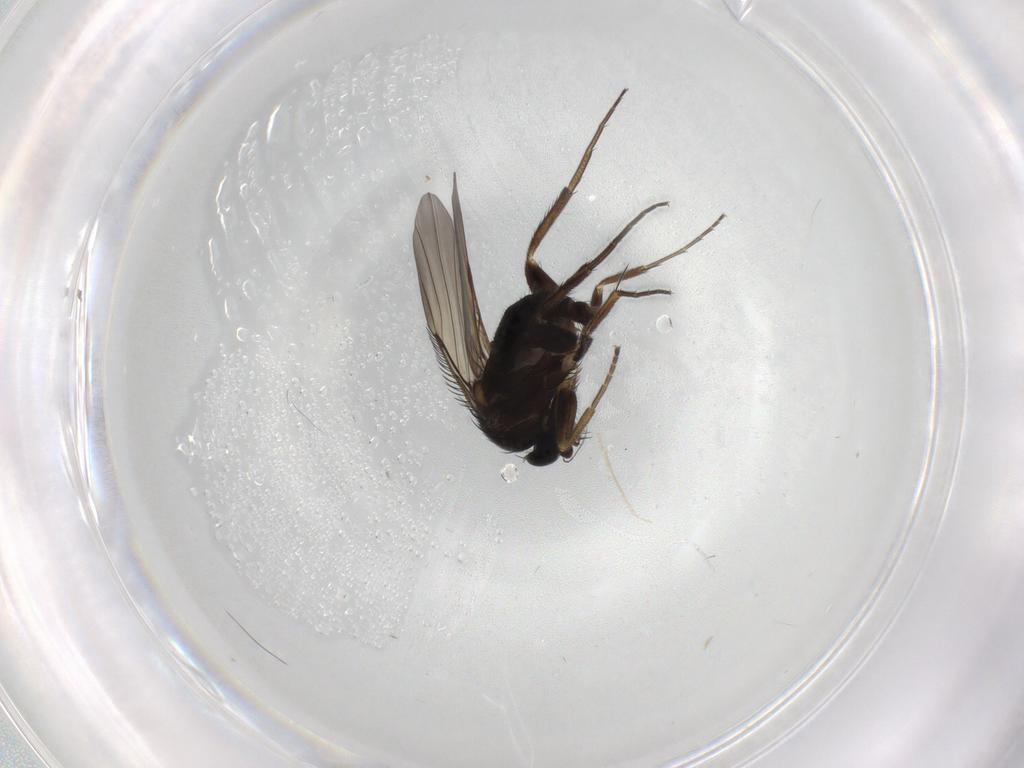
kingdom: Animalia
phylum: Arthropoda
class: Insecta
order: Diptera
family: Phoridae
